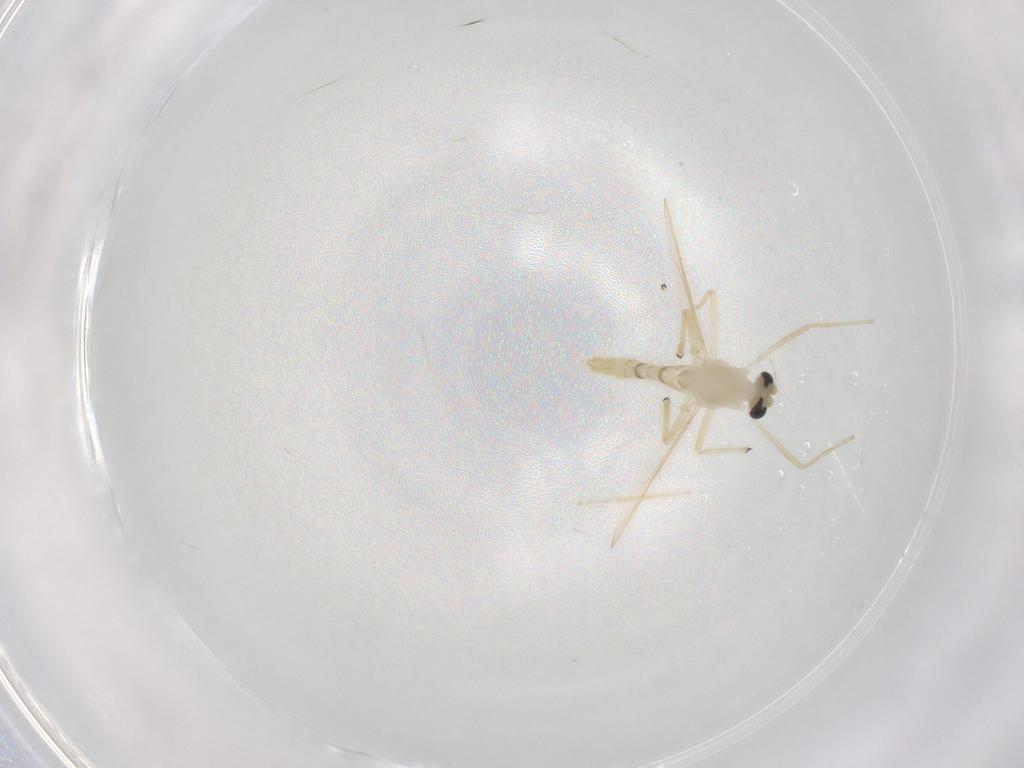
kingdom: Animalia
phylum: Arthropoda
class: Insecta
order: Diptera
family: Chironomidae
